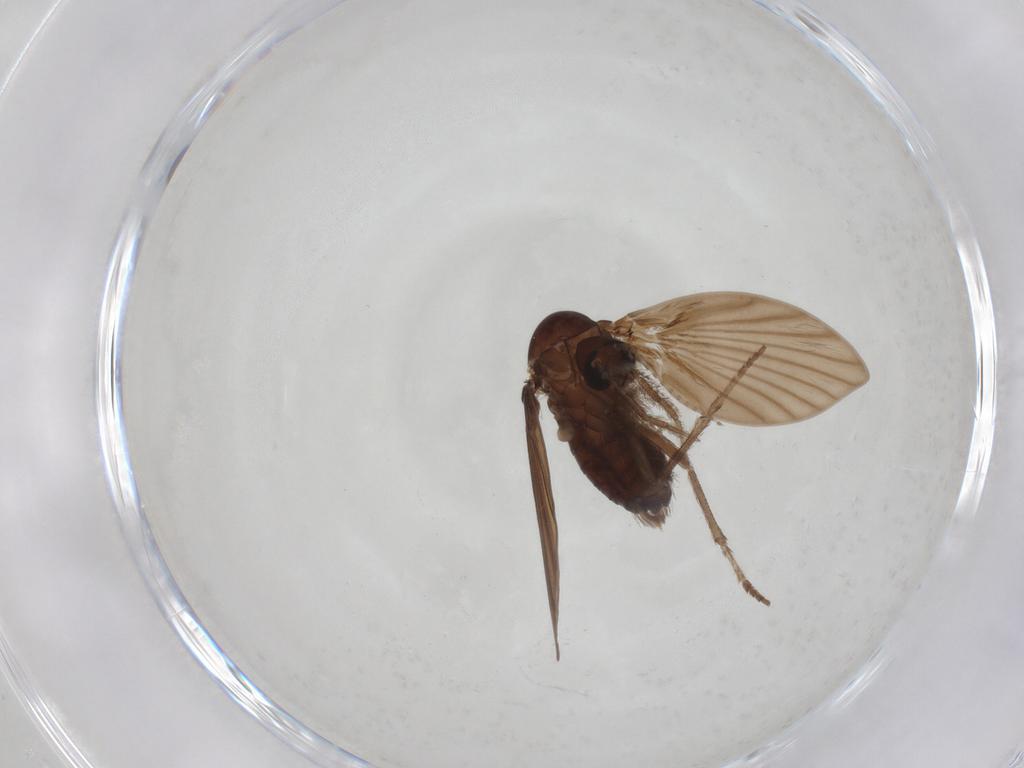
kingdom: Animalia
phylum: Arthropoda
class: Insecta
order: Diptera
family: Psychodidae
